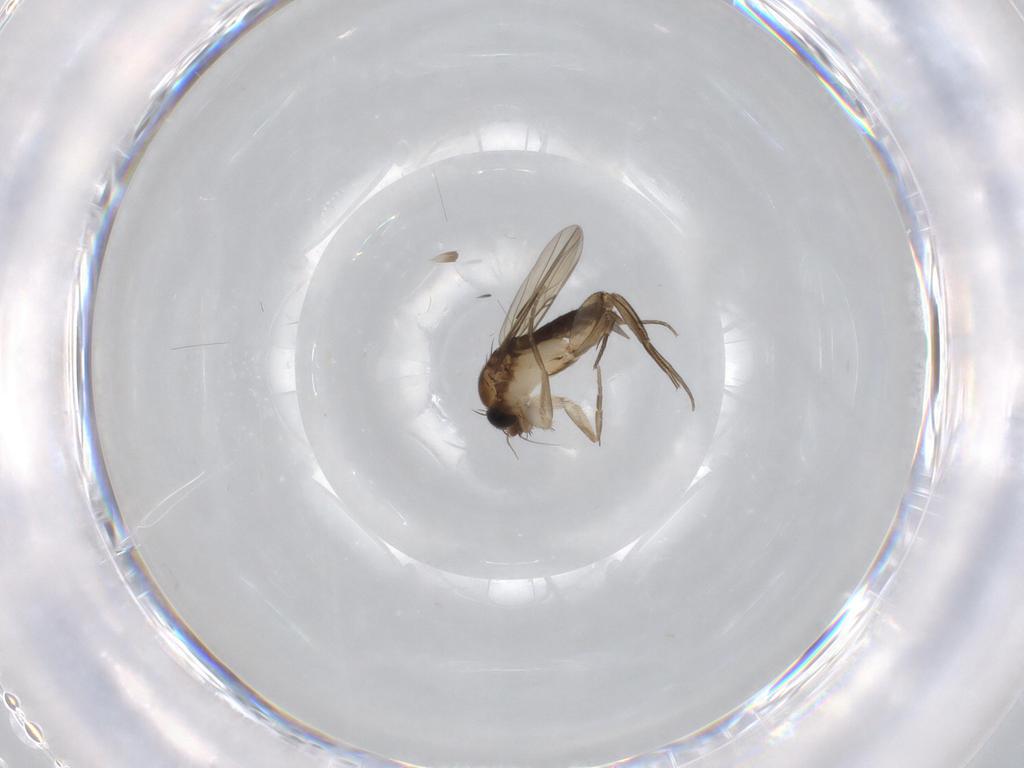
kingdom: Animalia
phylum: Arthropoda
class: Insecta
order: Diptera
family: Phoridae
